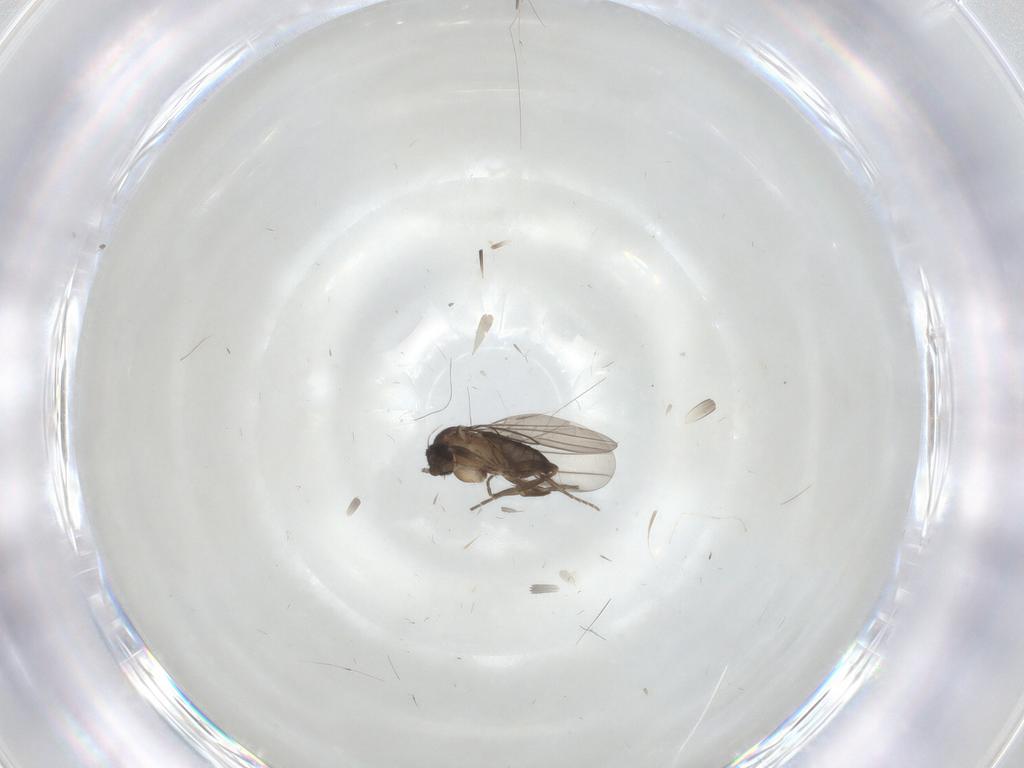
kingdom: Animalia
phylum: Arthropoda
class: Insecta
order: Diptera
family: Cecidomyiidae
